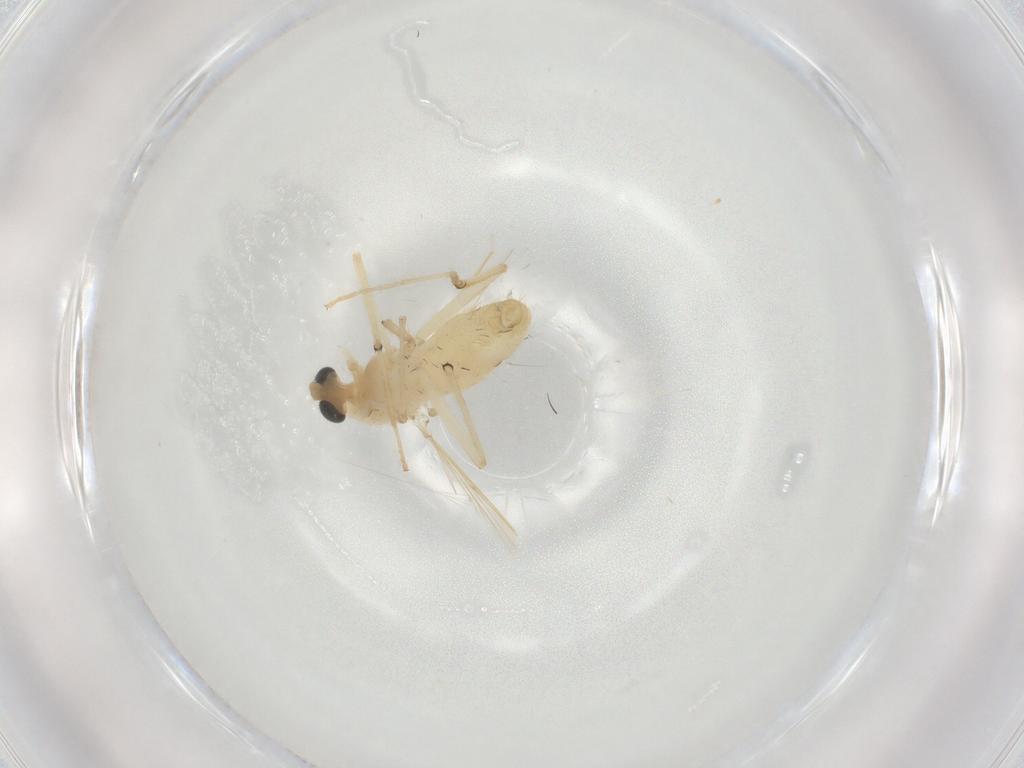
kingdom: Animalia
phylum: Arthropoda
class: Insecta
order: Diptera
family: Chironomidae
